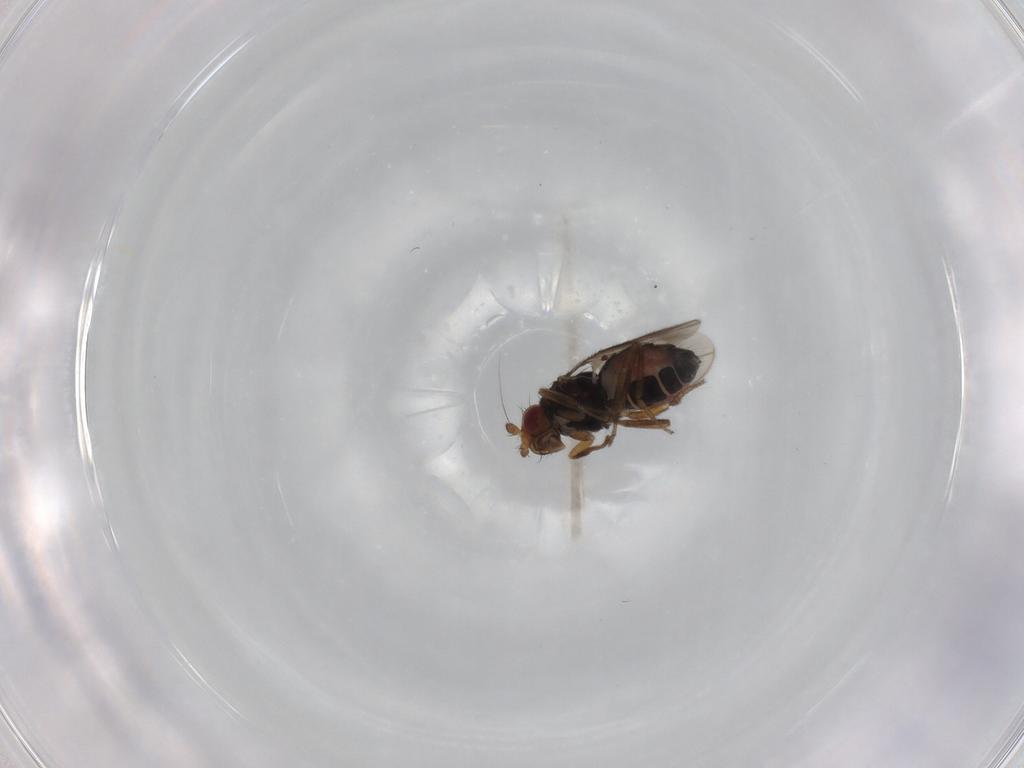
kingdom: Animalia
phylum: Arthropoda
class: Insecta
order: Diptera
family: Sphaeroceridae
